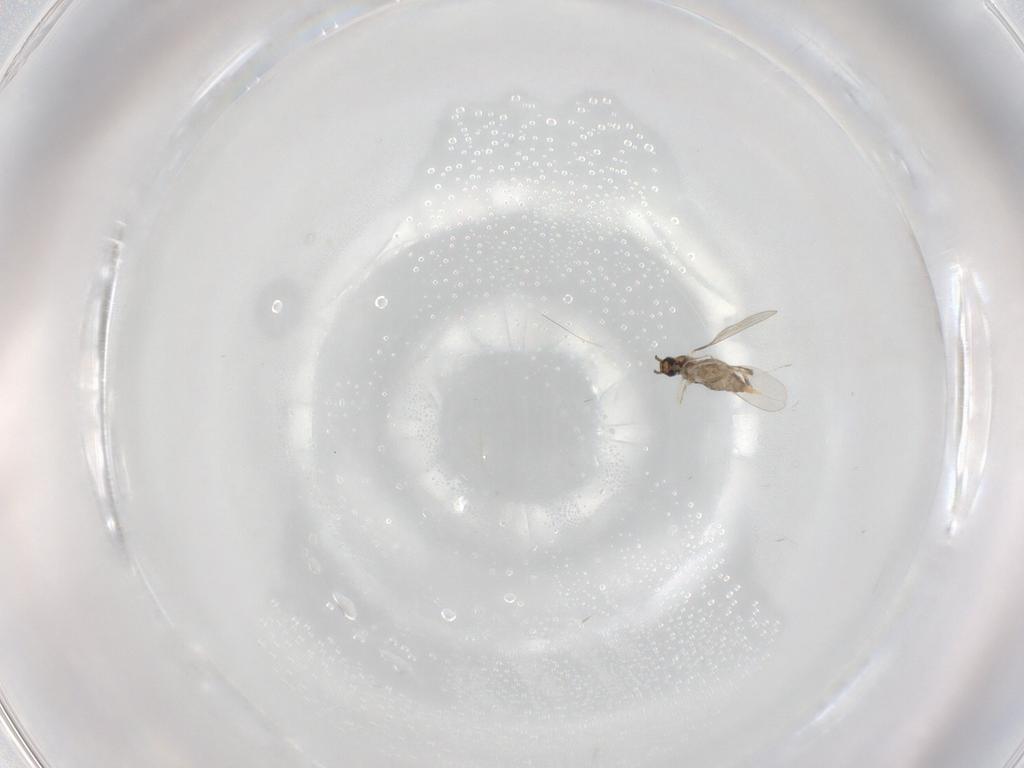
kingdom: Animalia
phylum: Arthropoda
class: Insecta
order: Diptera
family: Cecidomyiidae
